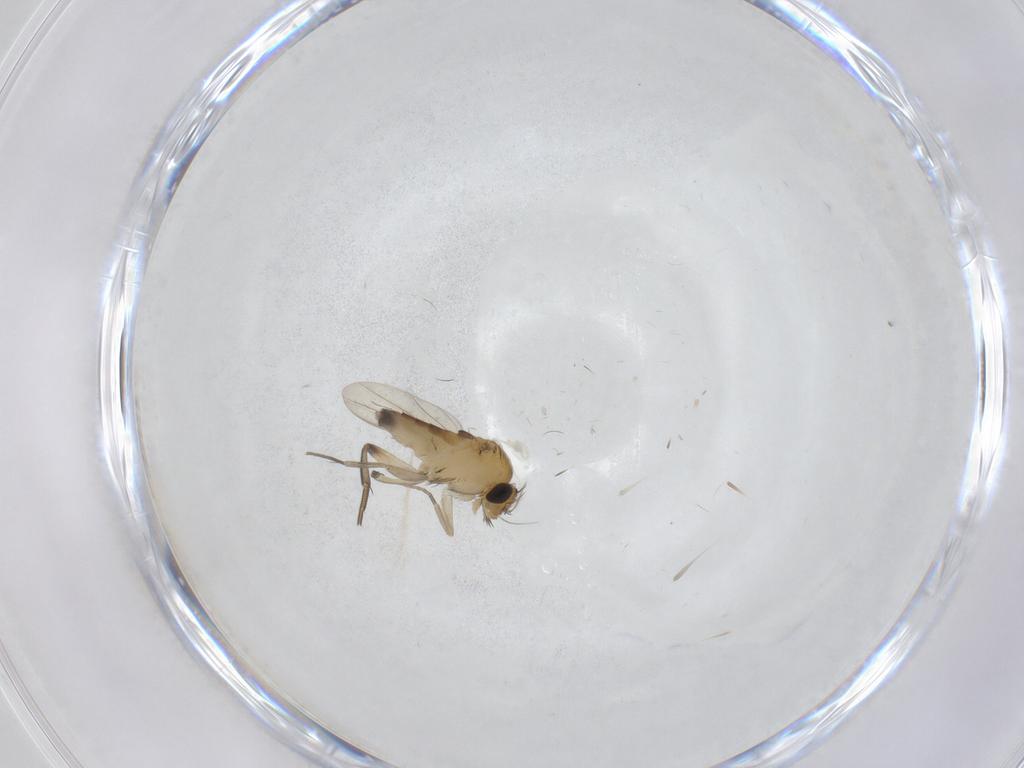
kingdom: Animalia
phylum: Arthropoda
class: Insecta
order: Diptera
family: Phoridae
